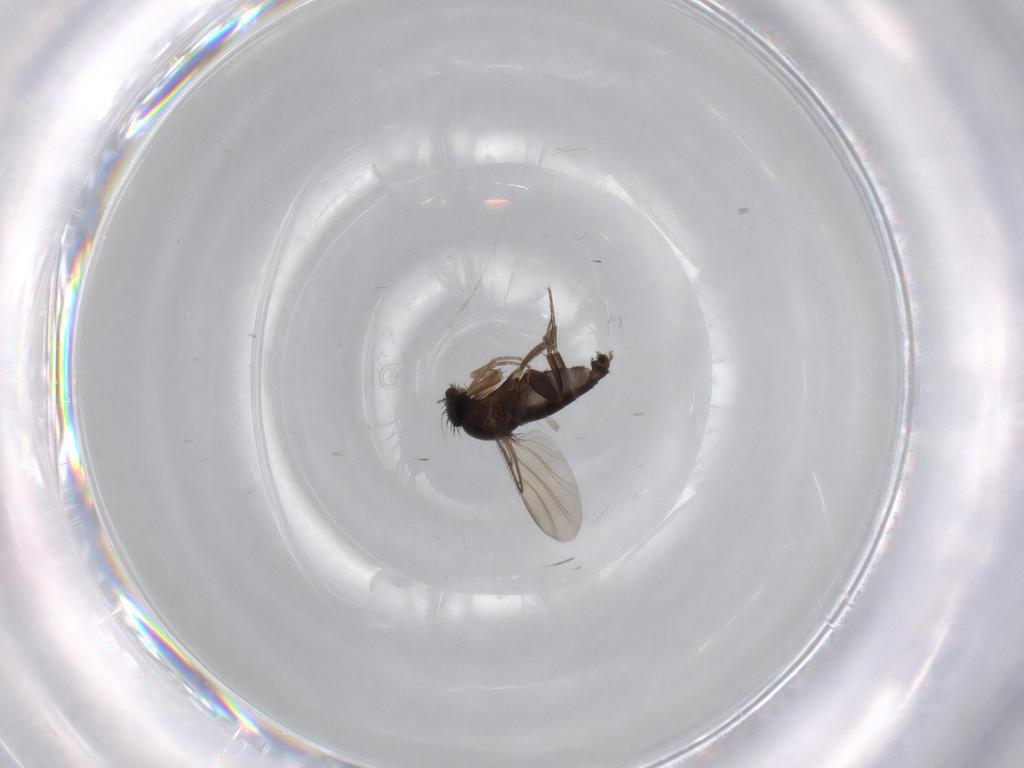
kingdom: Animalia
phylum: Arthropoda
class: Insecta
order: Diptera
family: Phoridae
